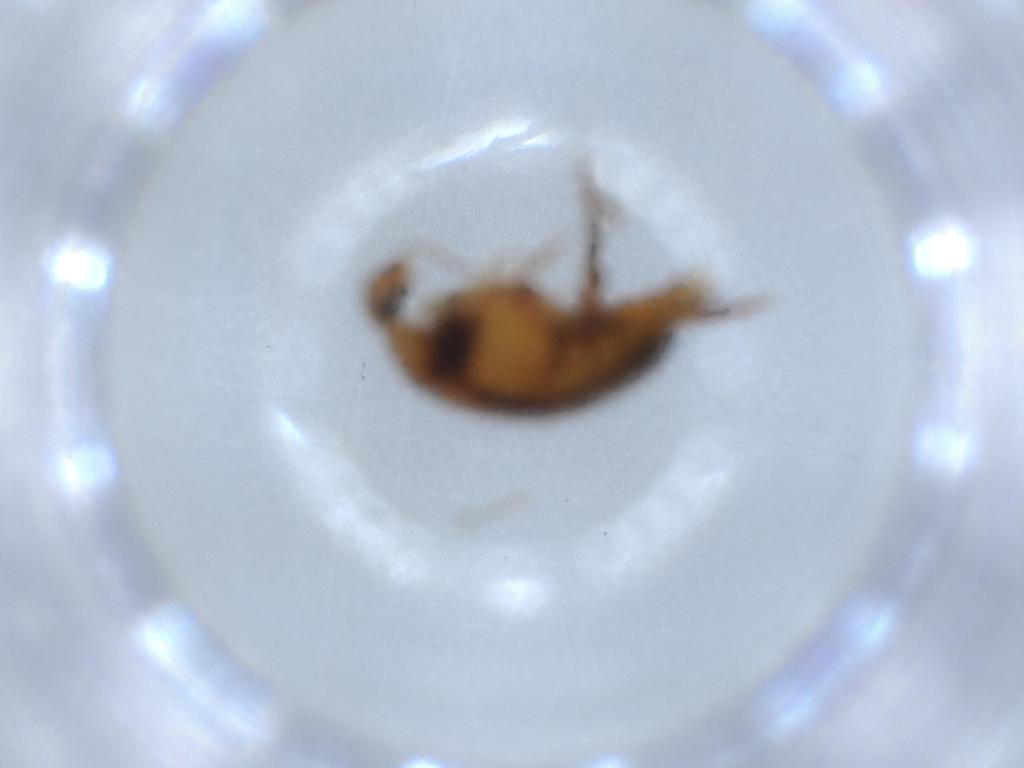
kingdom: Animalia
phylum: Arthropoda
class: Insecta
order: Coleoptera
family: Mordellidae
